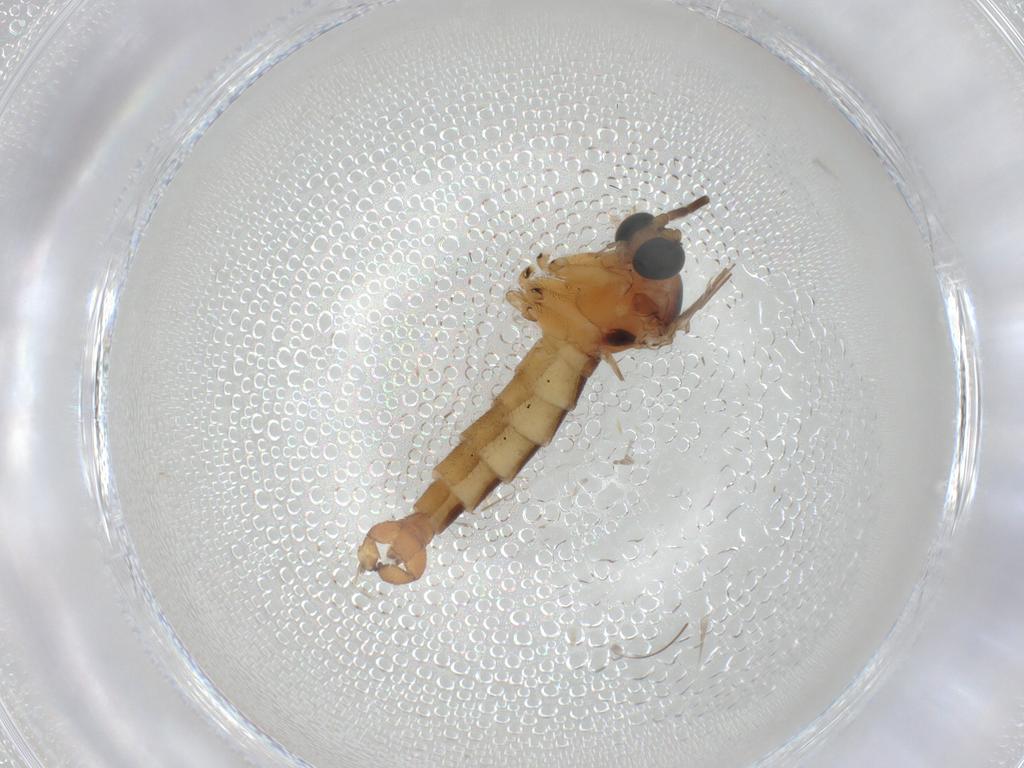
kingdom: Animalia
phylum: Arthropoda
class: Insecta
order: Diptera
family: Sciaridae
